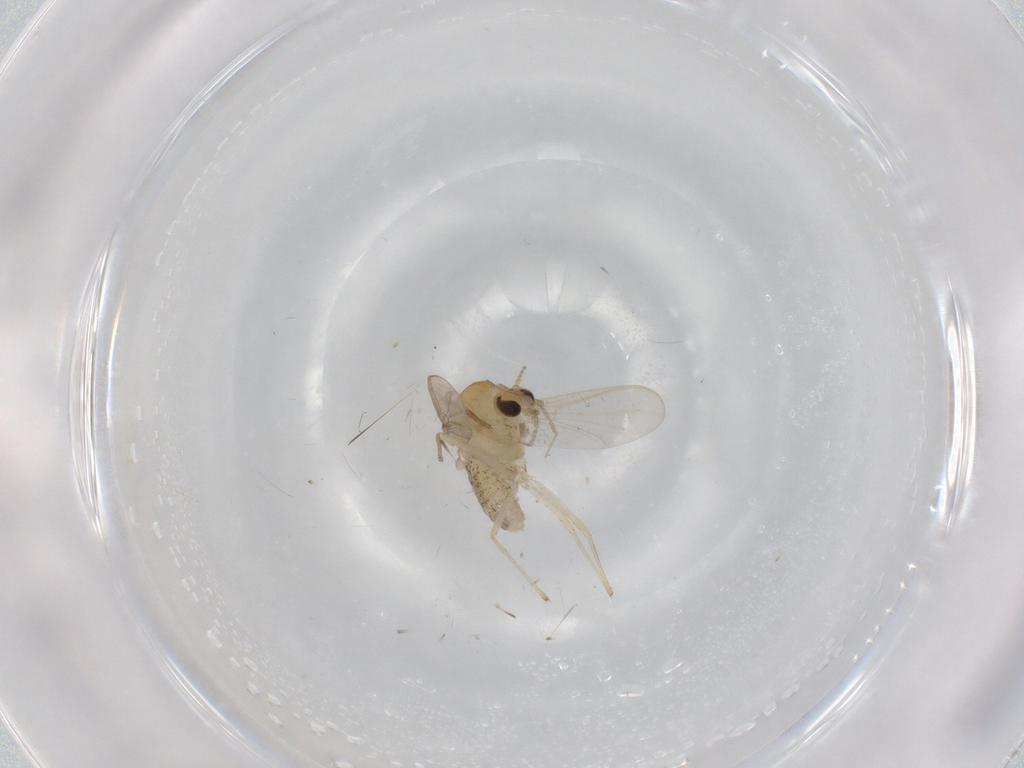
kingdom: Animalia
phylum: Arthropoda
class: Insecta
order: Diptera
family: Chironomidae
